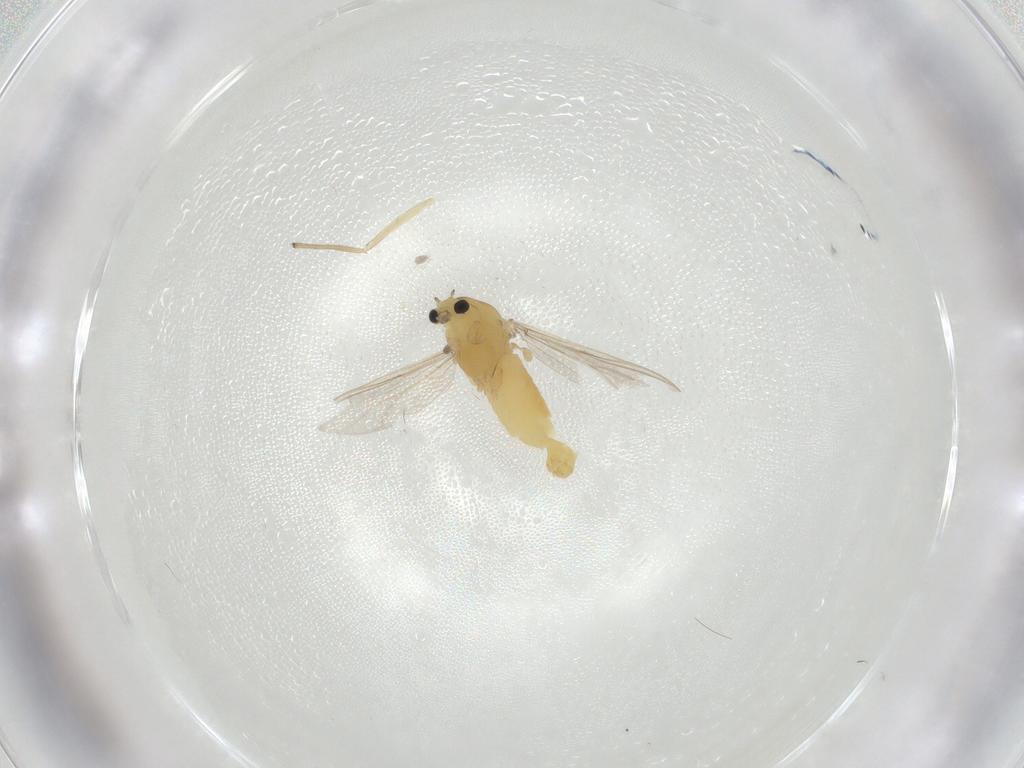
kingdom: Animalia
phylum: Arthropoda
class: Insecta
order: Diptera
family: Chironomidae
